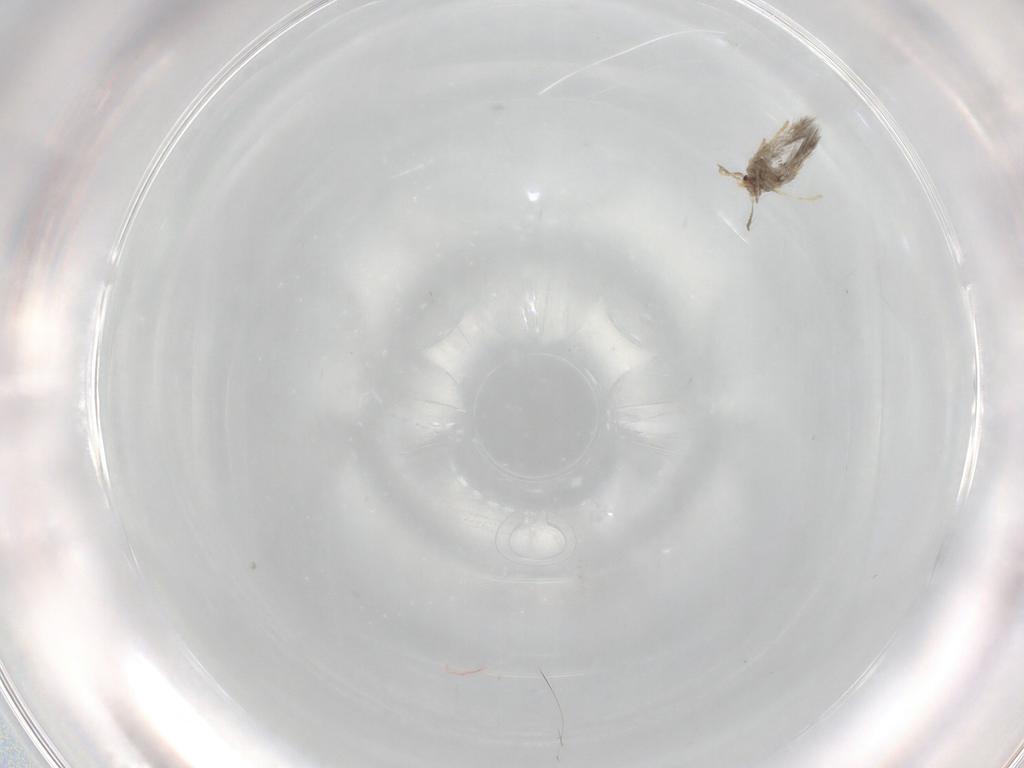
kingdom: Animalia
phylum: Arthropoda
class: Insecta
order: Lepidoptera
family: Nepticulidae
